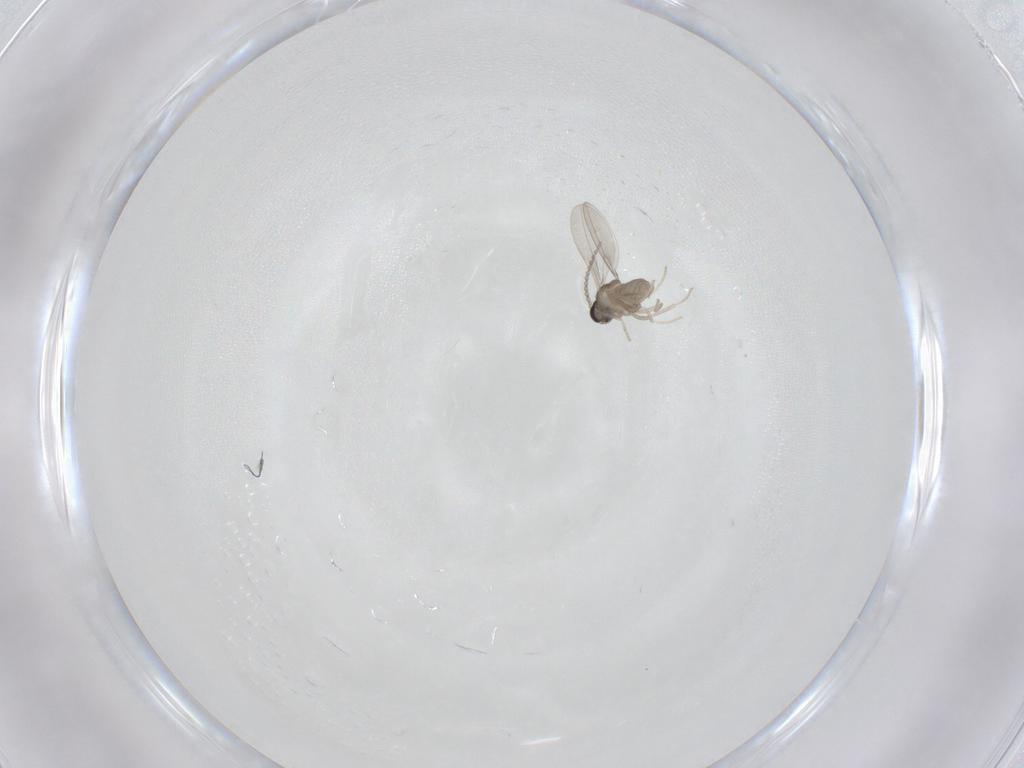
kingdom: Animalia
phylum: Arthropoda
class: Insecta
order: Diptera
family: Cecidomyiidae
